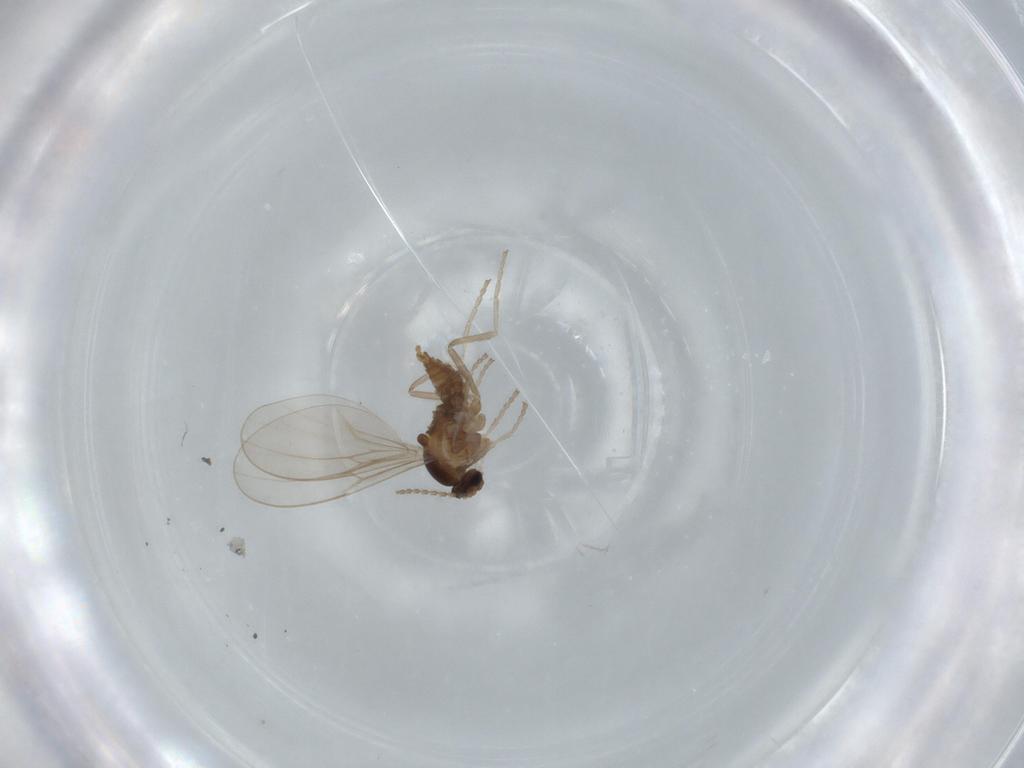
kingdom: Animalia
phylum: Arthropoda
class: Insecta
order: Diptera
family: Cecidomyiidae
